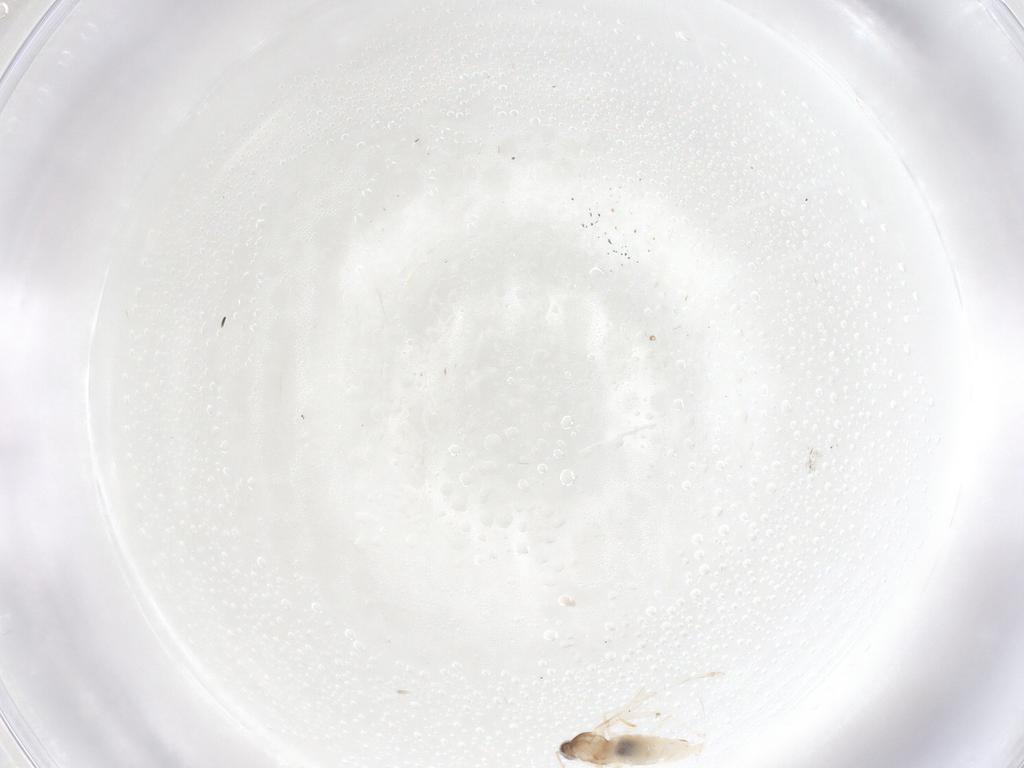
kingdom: Animalia
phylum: Arthropoda
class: Insecta
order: Diptera
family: Cecidomyiidae
